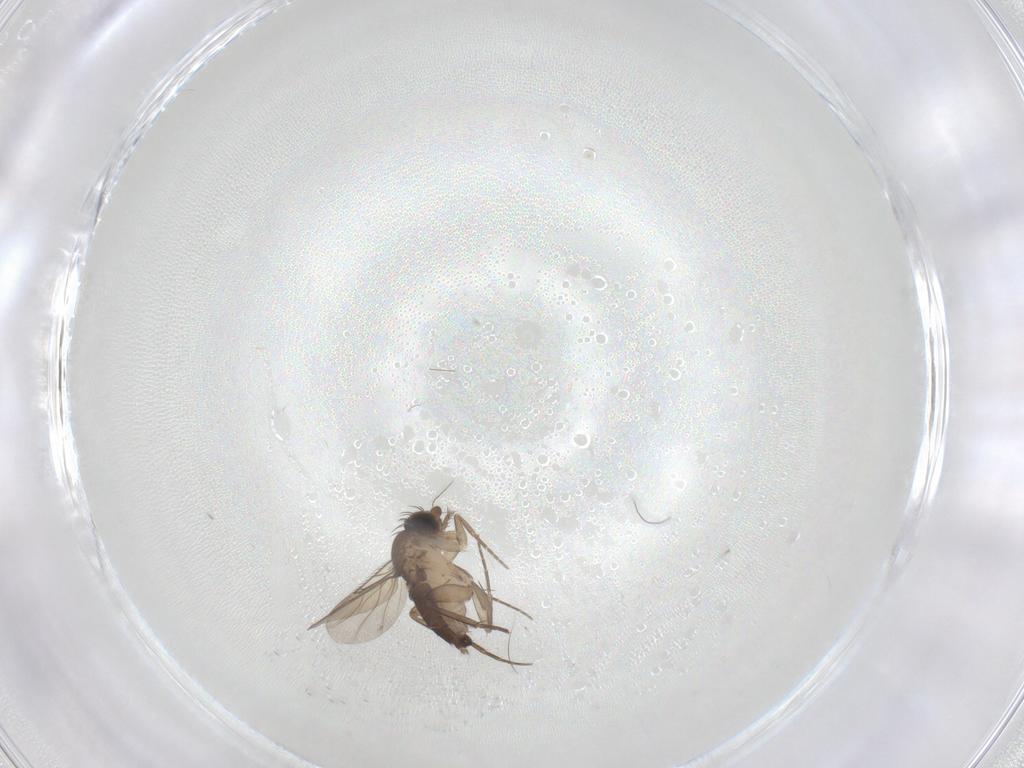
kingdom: Animalia
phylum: Arthropoda
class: Insecta
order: Diptera
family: Phoridae
